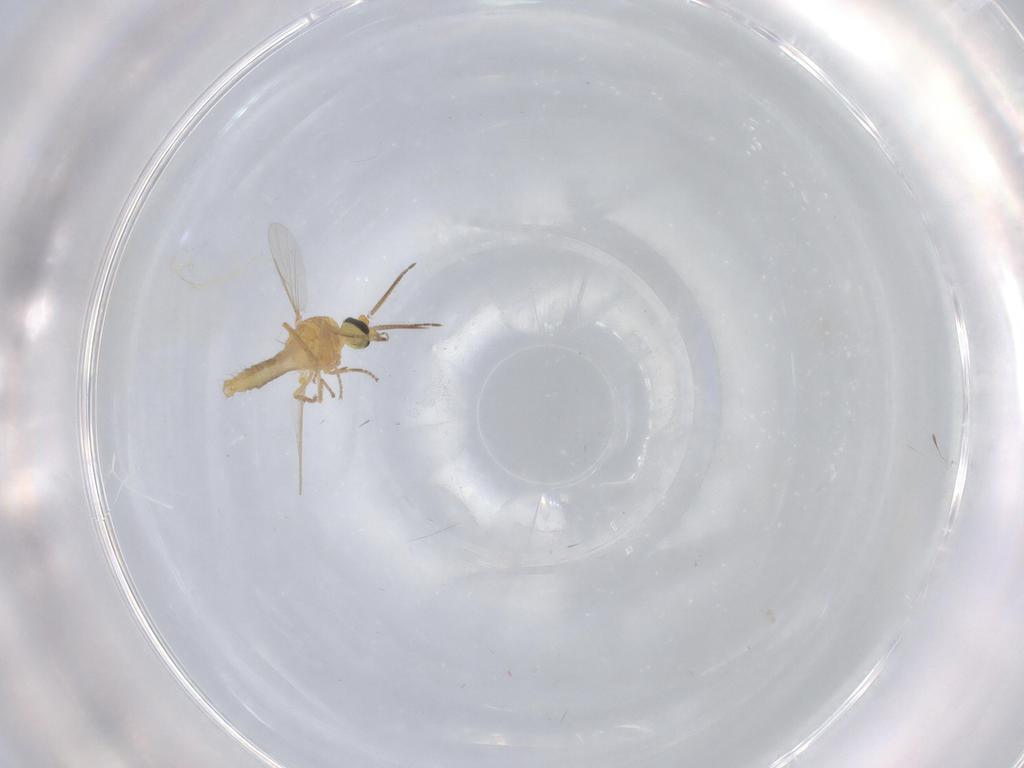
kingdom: Animalia
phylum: Arthropoda
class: Insecta
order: Diptera
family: Ceratopogonidae
